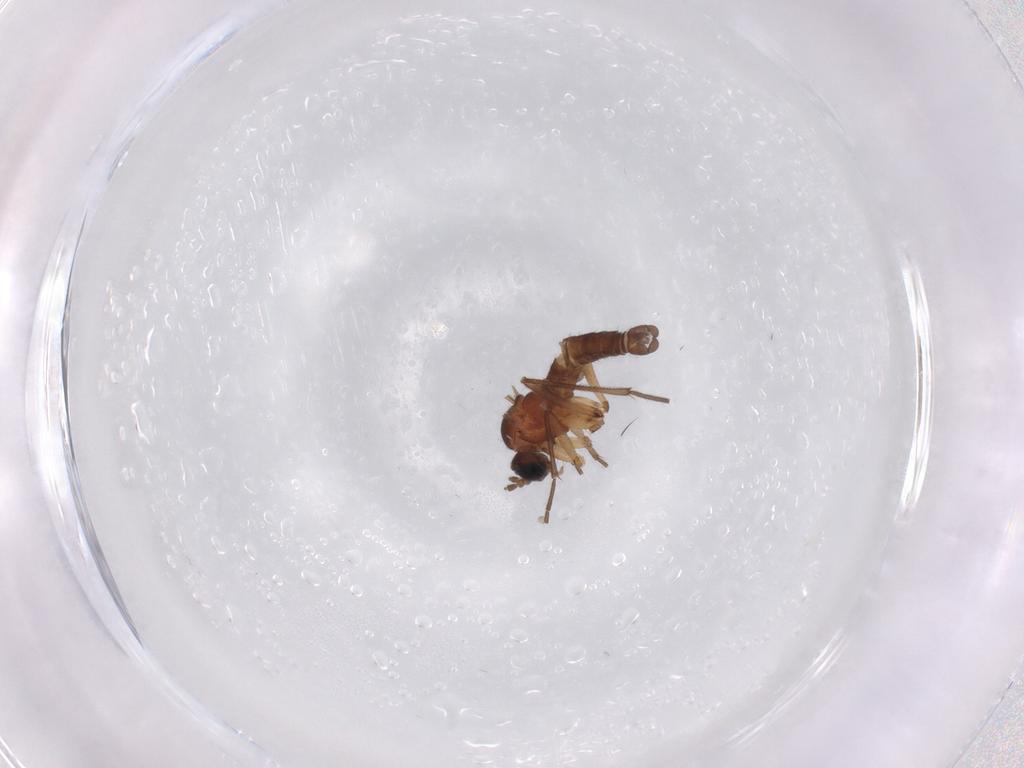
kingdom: Animalia
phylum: Arthropoda
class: Insecta
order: Diptera
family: Sciaridae
